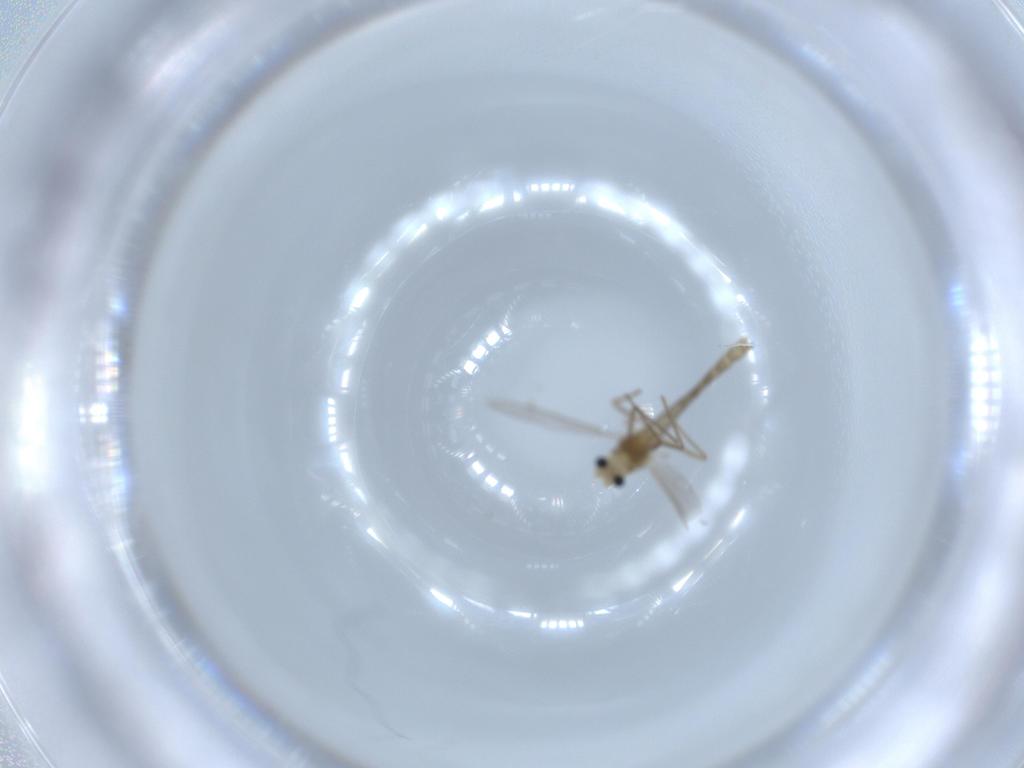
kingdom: Animalia
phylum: Arthropoda
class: Insecta
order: Diptera
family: Chironomidae
